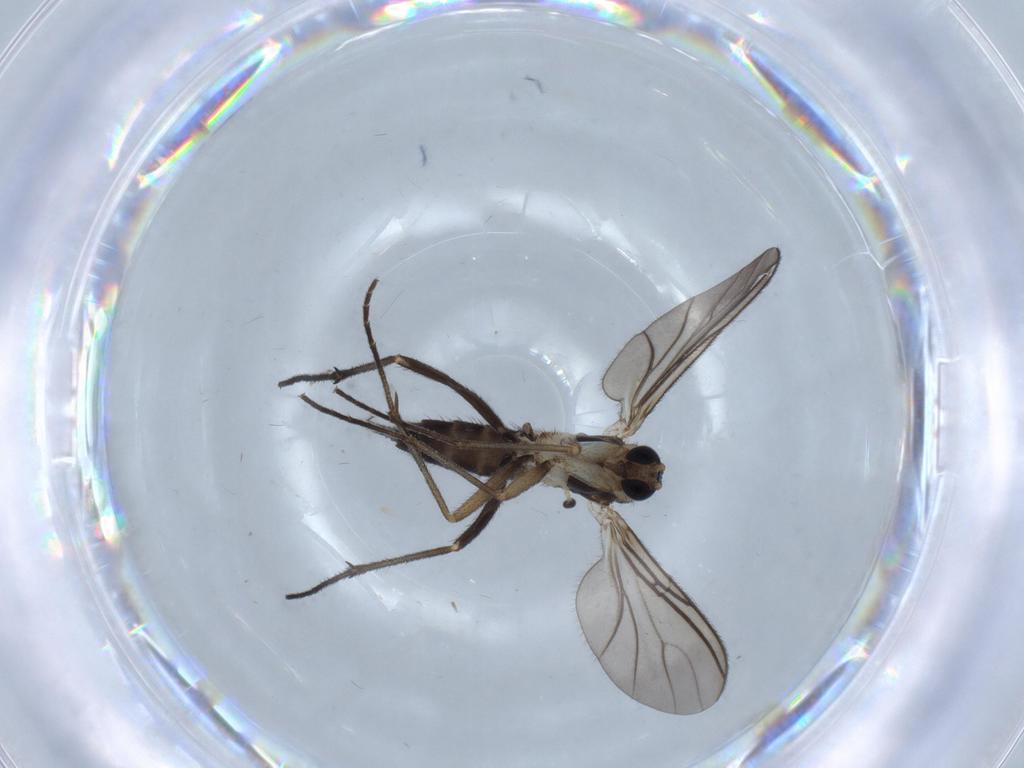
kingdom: Animalia
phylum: Arthropoda
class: Insecta
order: Diptera
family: Sciaridae
